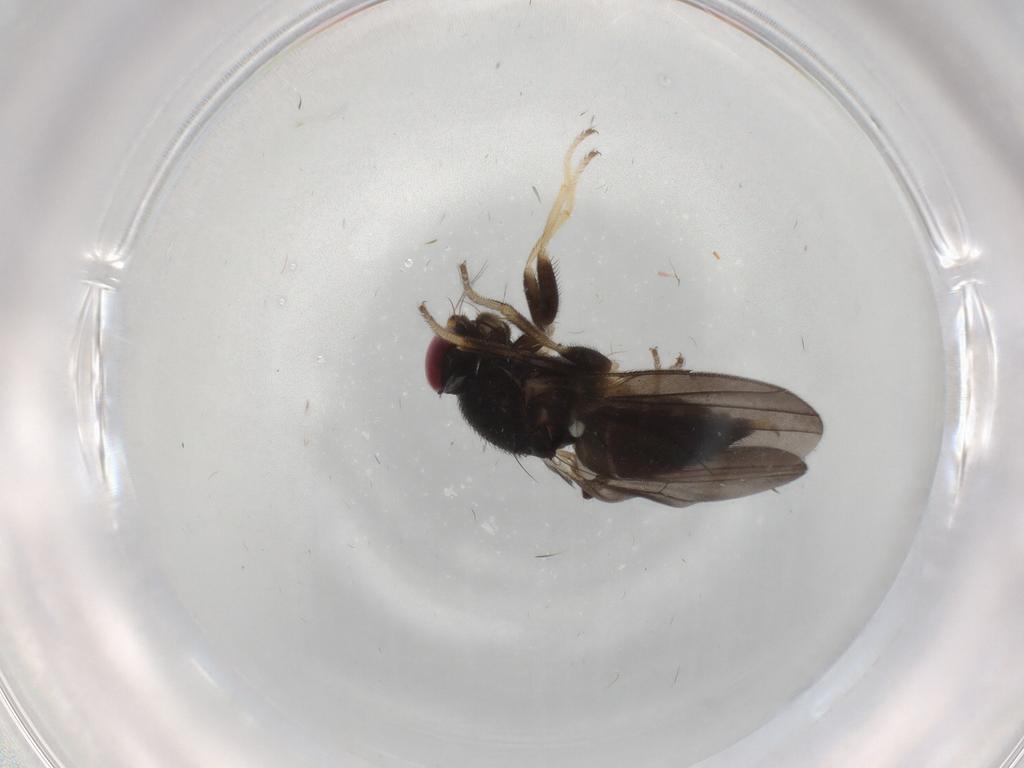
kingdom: Animalia
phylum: Arthropoda
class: Insecta
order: Diptera
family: Clusiidae
